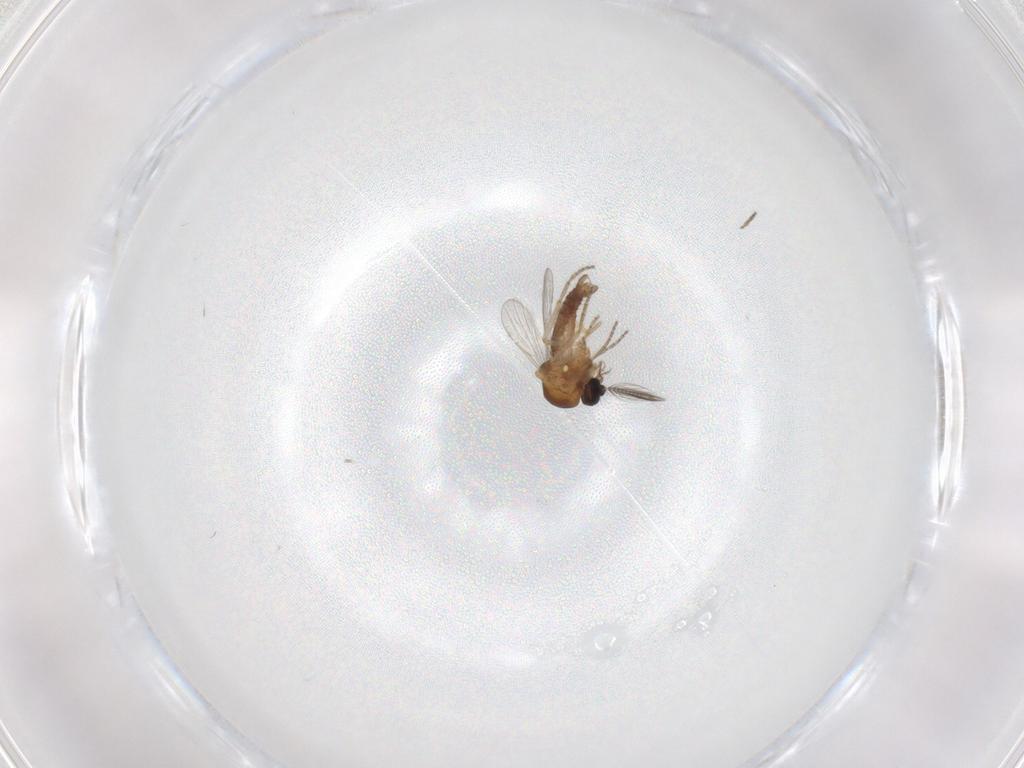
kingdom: Animalia
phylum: Arthropoda
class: Insecta
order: Diptera
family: Ceratopogonidae
